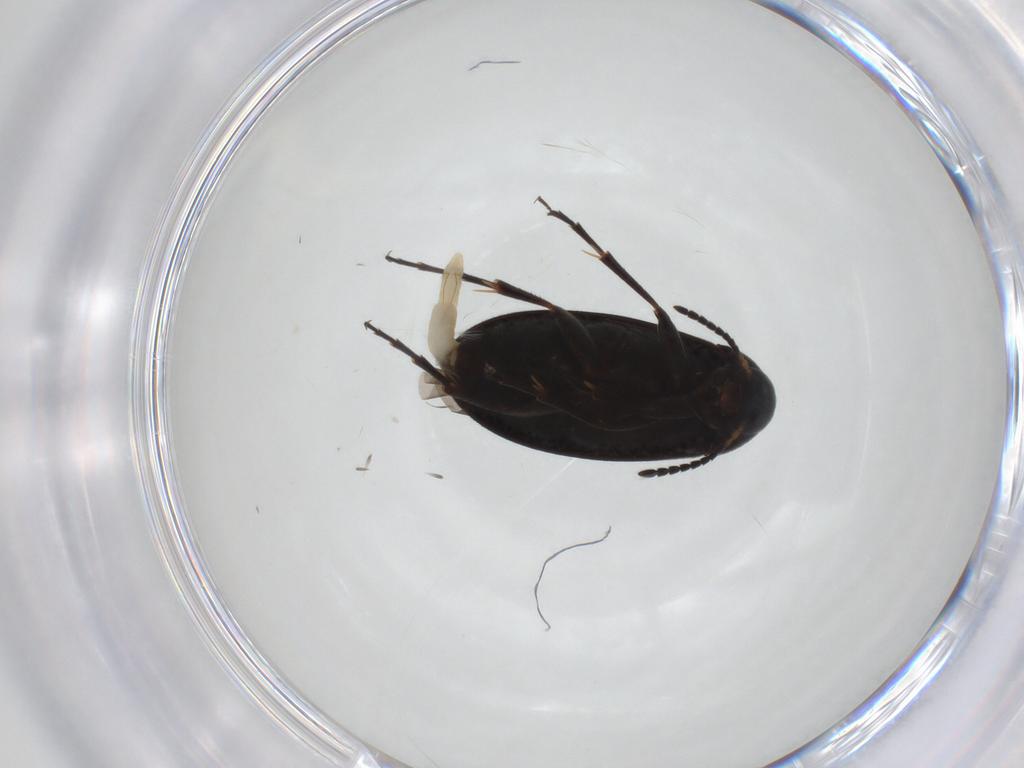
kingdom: Animalia
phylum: Arthropoda
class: Insecta
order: Coleoptera
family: Scraptiidae
